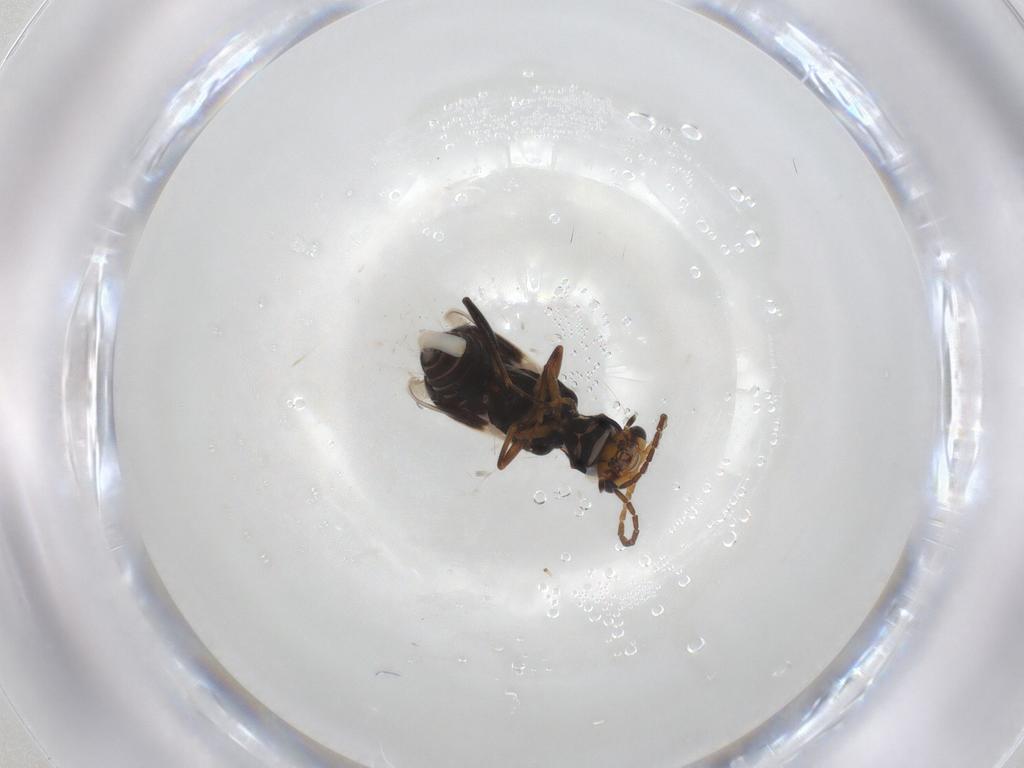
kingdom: Animalia
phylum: Arthropoda
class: Insecta
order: Coleoptera
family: Melyridae
